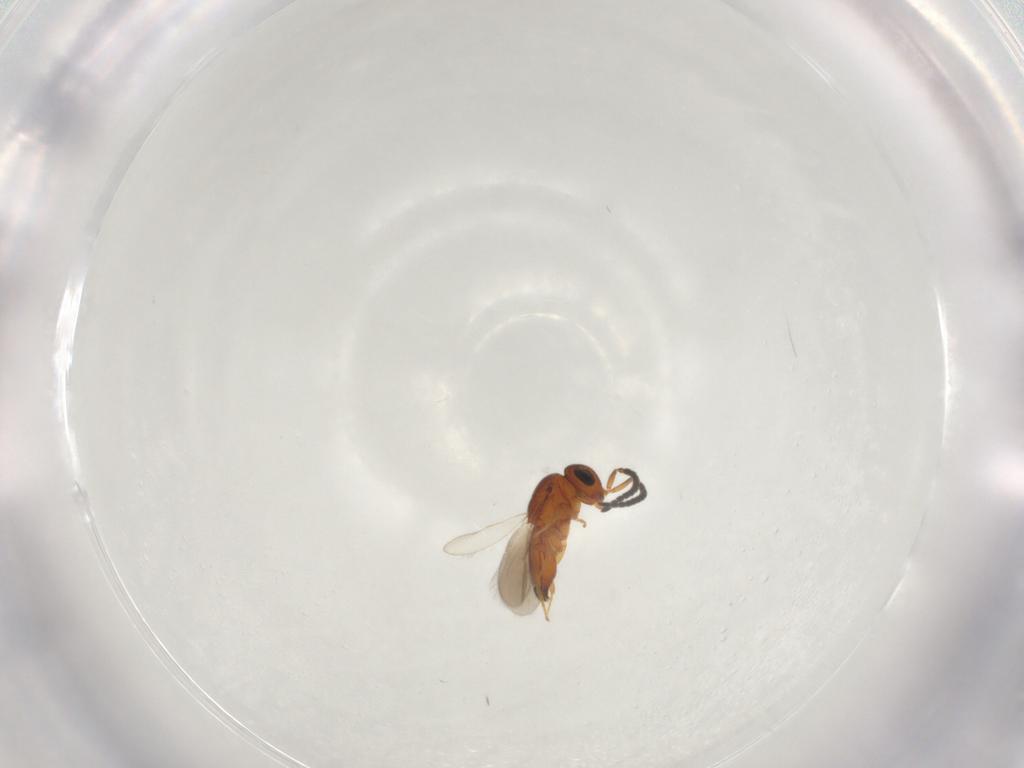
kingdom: Animalia
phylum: Arthropoda
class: Insecta
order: Hymenoptera
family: Scelionidae
